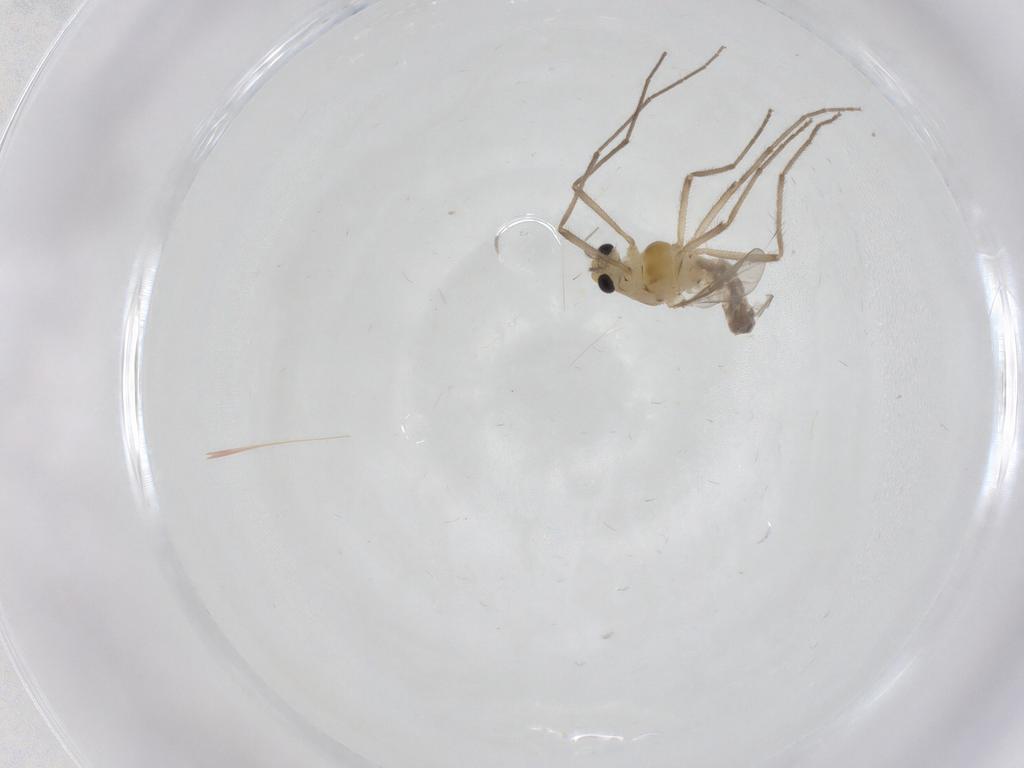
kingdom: Animalia
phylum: Arthropoda
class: Insecta
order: Diptera
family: Chironomidae
